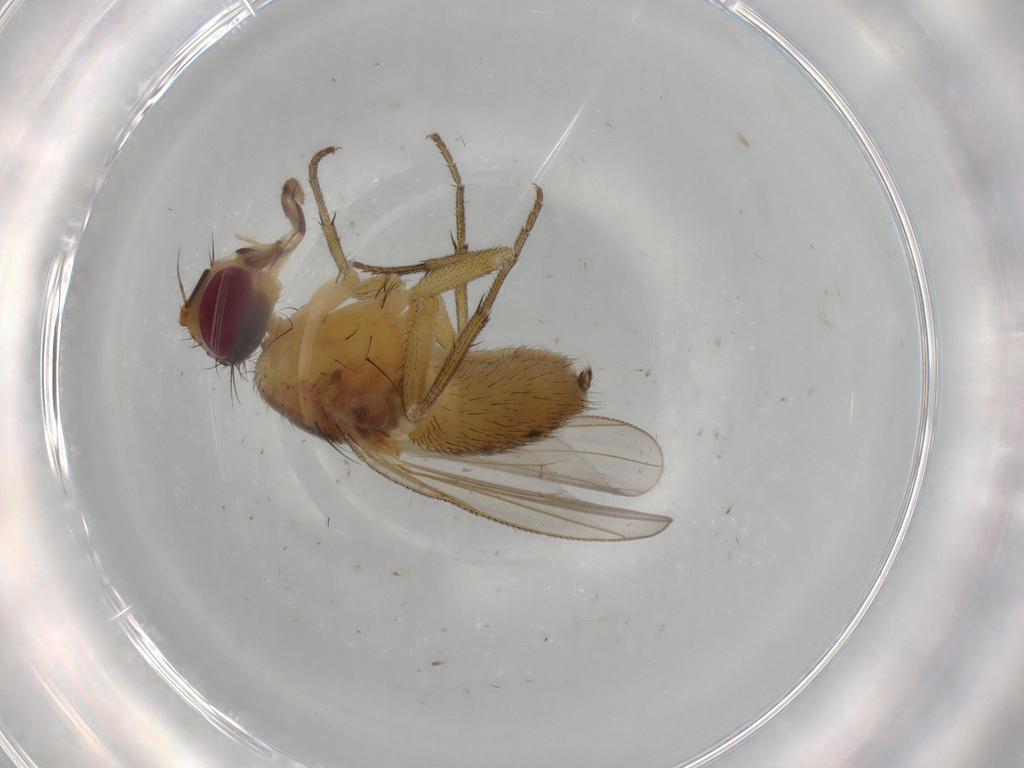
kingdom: Animalia
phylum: Arthropoda
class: Insecta
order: Diptera
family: Muscidae
